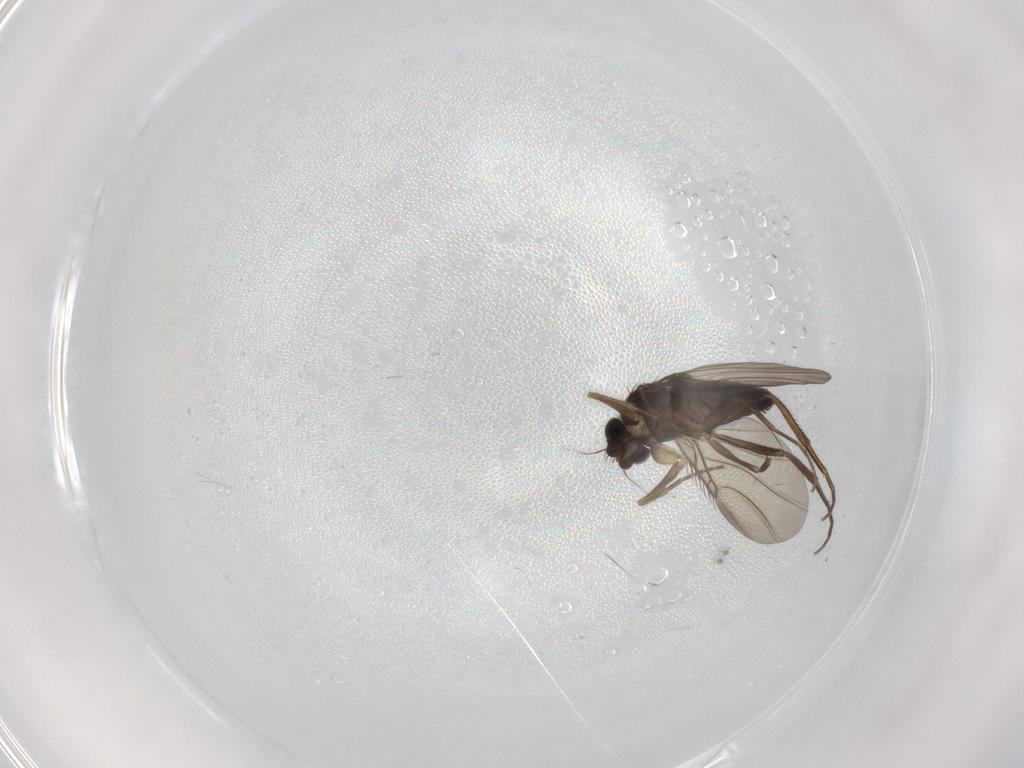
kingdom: Animalia
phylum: Arthropoda
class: Insecta
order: Diptera
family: Phoridae
